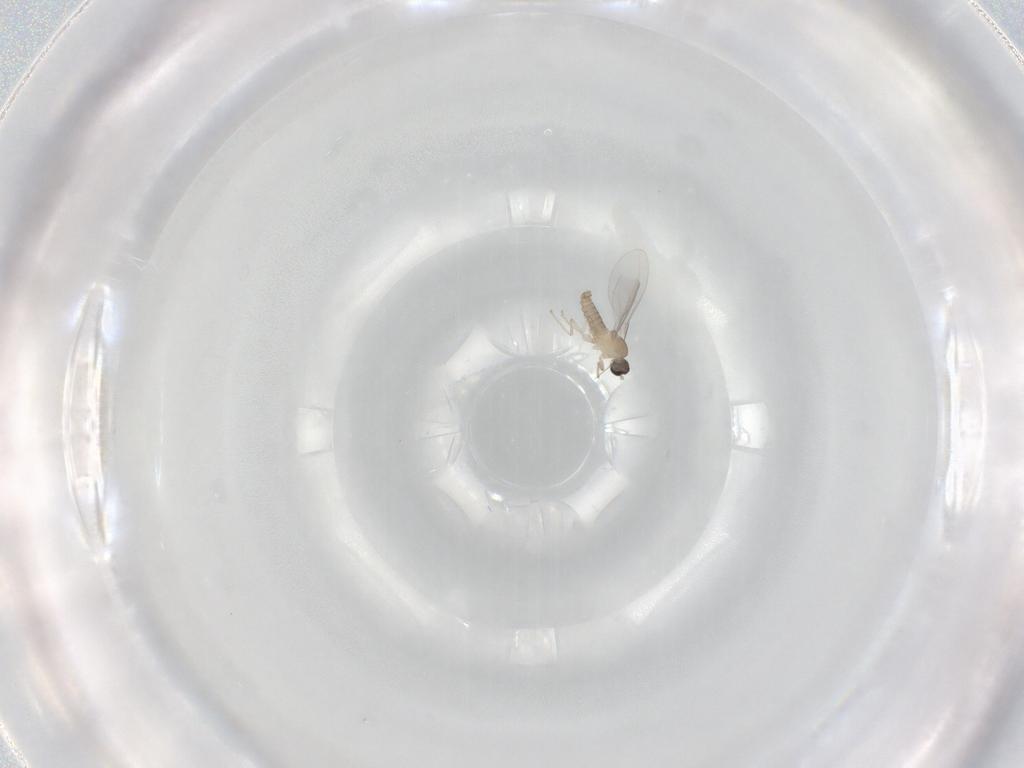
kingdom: Animalia
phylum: Arthropoda
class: Insecta
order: Diptera
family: Cecidomyiidae
